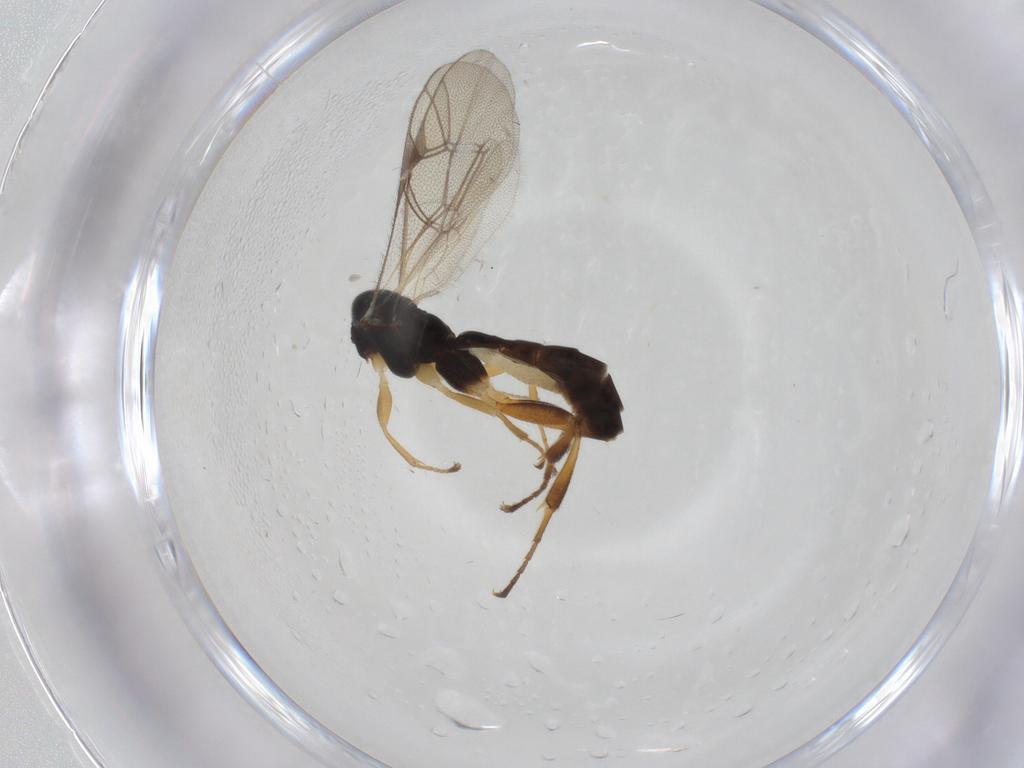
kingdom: Animalia
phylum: Arthropoda
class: Insecta
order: Hymenoptera
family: Ichneumonidae
